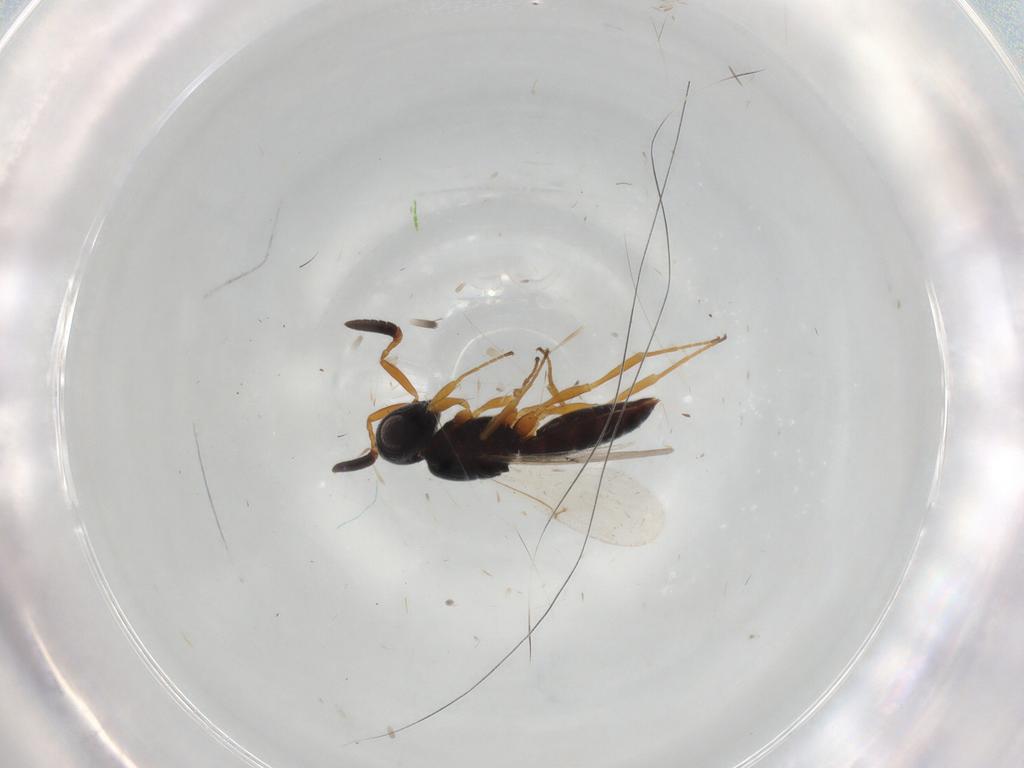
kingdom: Animalia
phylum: Arthropoda
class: Insecta
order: Hymenoptera
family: Scelionidae
